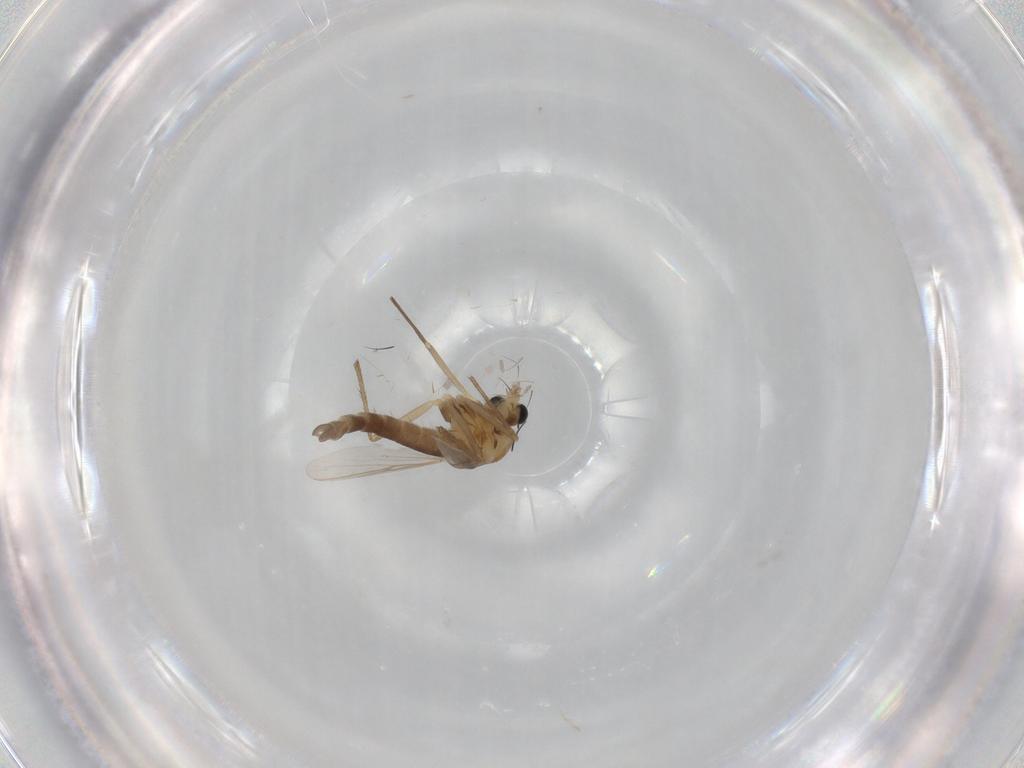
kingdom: Animalia
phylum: Arthropoda
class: Insecta
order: Diptera
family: Chironomidae
